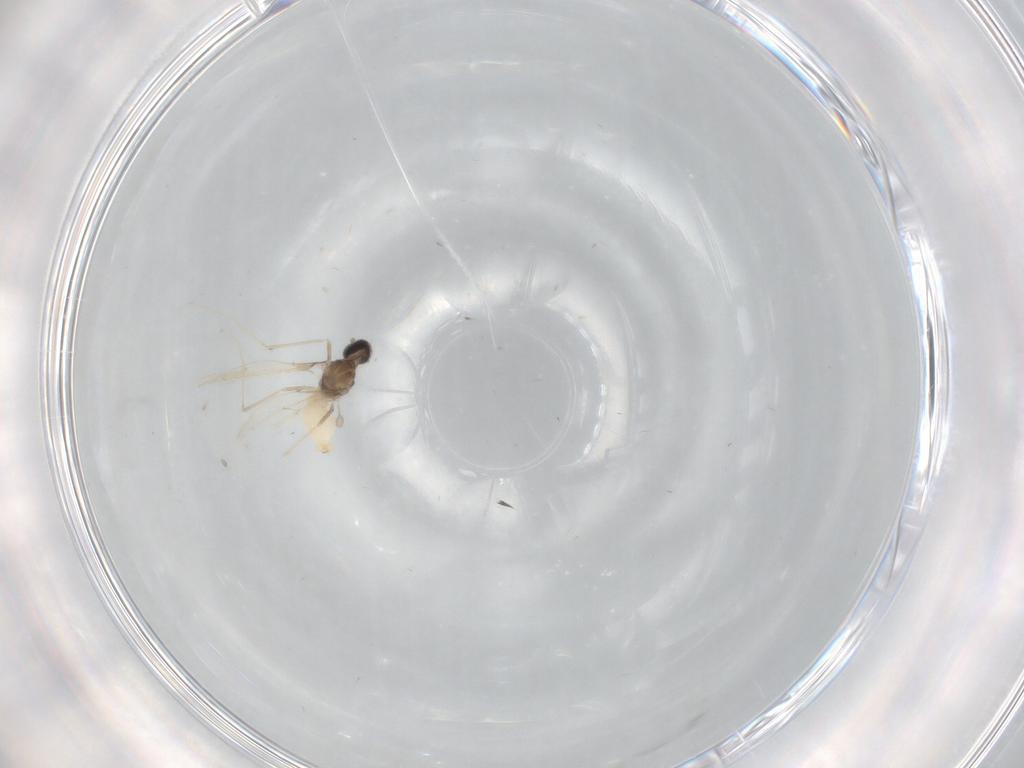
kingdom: Animalia
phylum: Arthropoda
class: Insecta
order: Diptera
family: Cecidomyiidae
